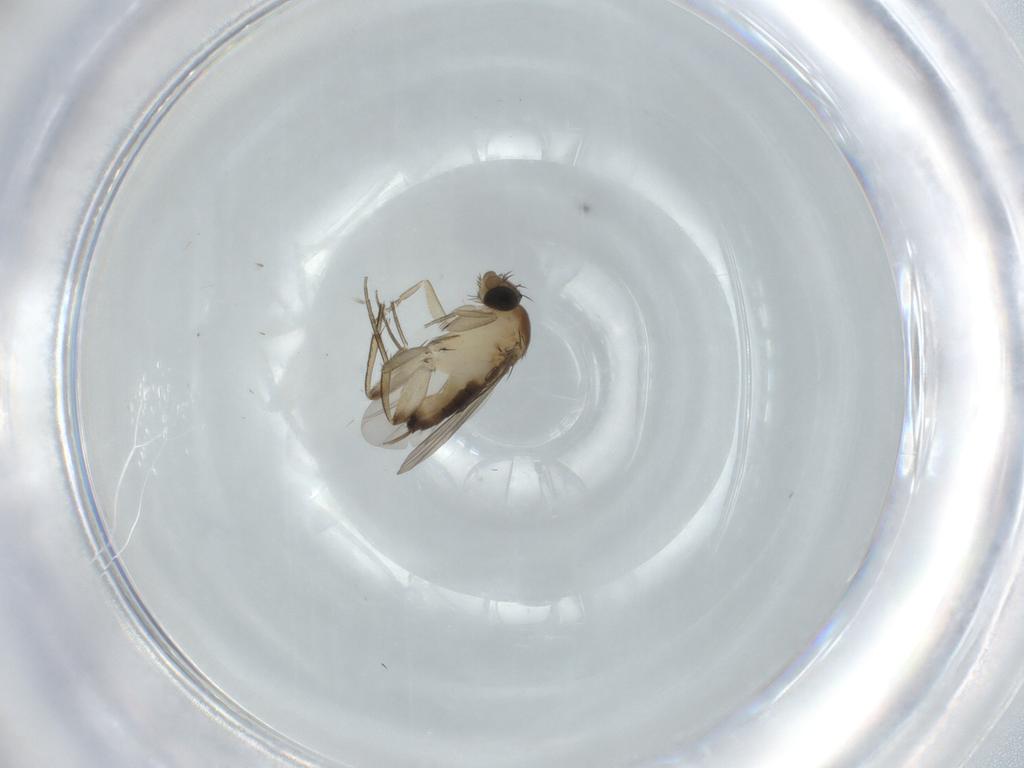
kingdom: Animalia
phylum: Arthropoda
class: Insecta
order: Diptera
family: Phoridae
